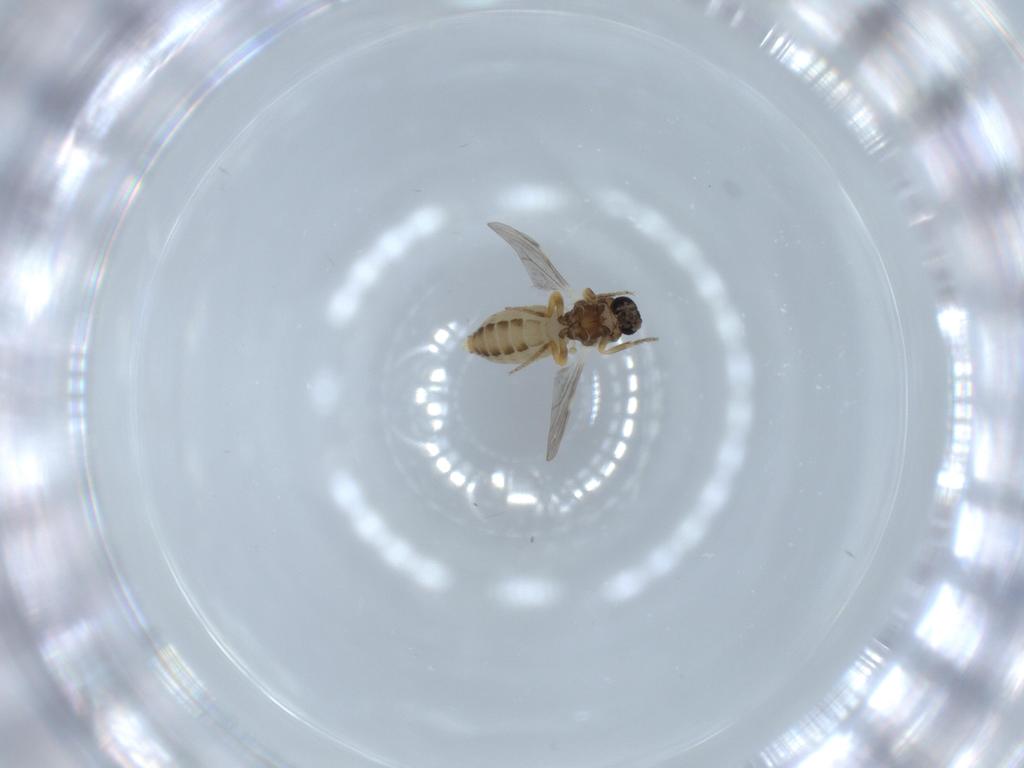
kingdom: Animalia
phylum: Arthropoda
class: Insecta
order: Diptera
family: Ceratopogonidae
